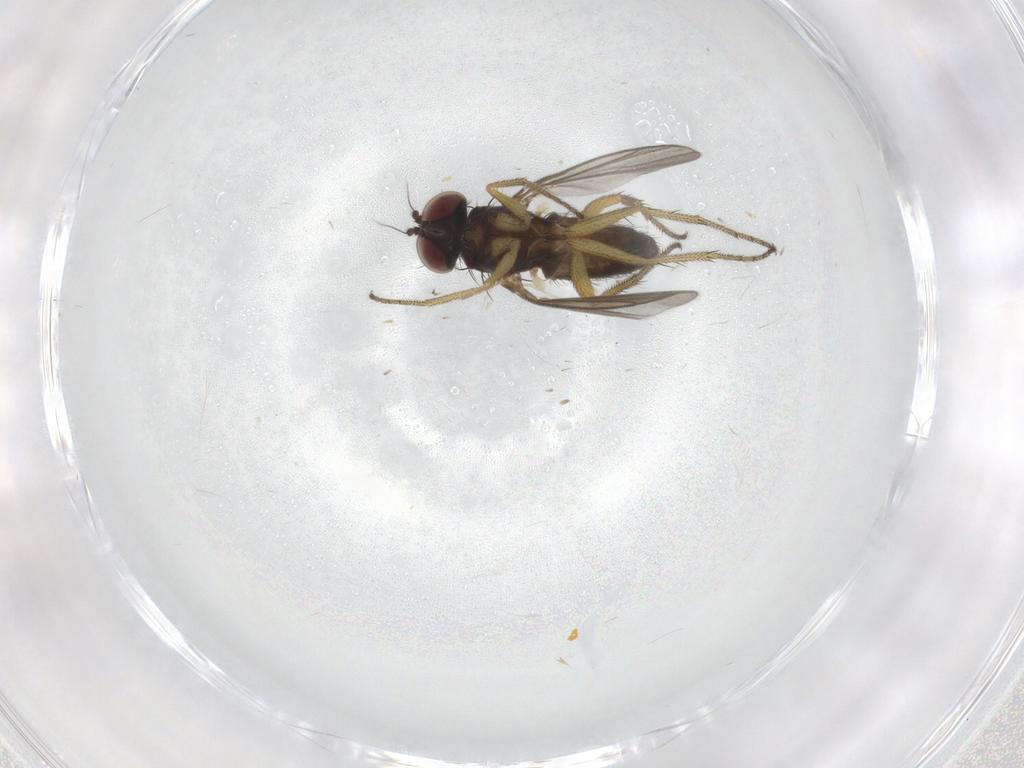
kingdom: Animalia
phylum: Arthropoda
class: Insecta
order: Diptera
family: Dolichopodidae
